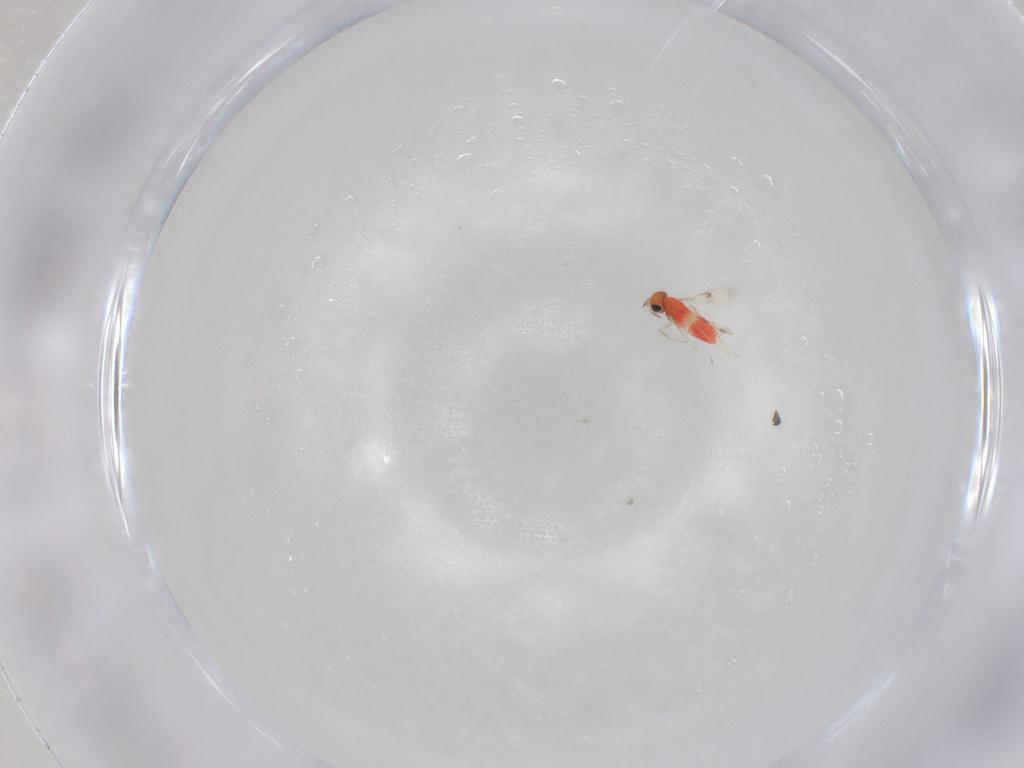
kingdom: Animalia
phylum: Arthropoda
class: Insecta
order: Hymenoptera
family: Trichogrammatidae
